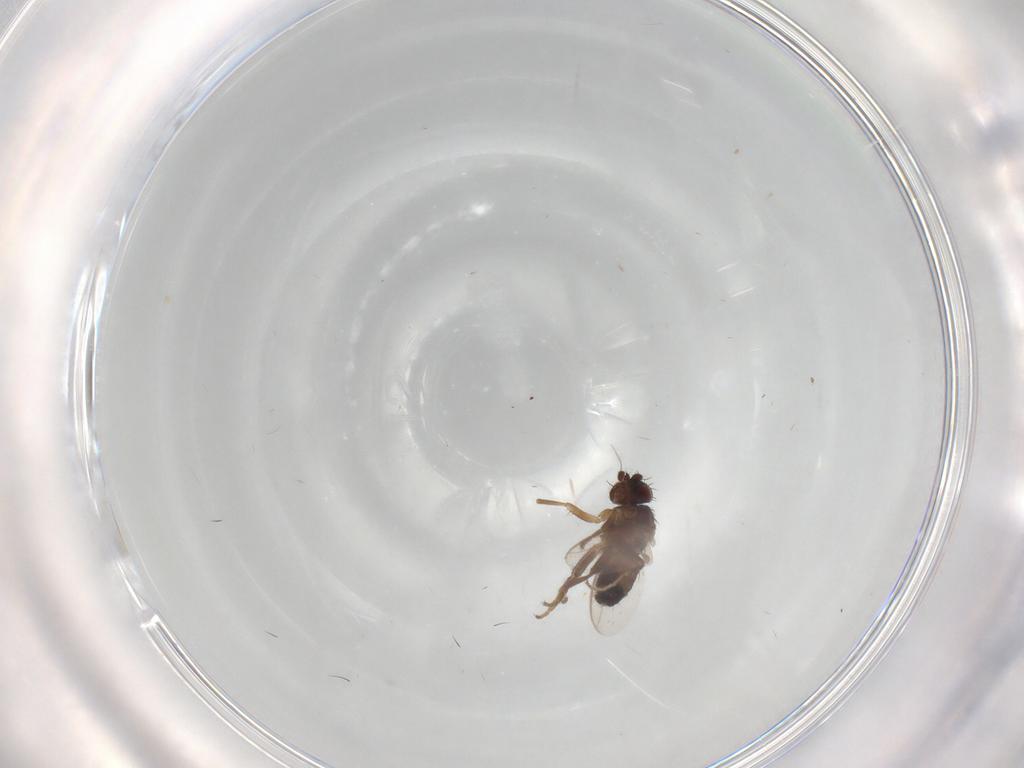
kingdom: Animalia
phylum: Arthropoda
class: Insecta
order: Diptera
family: Sphaeroceridae
